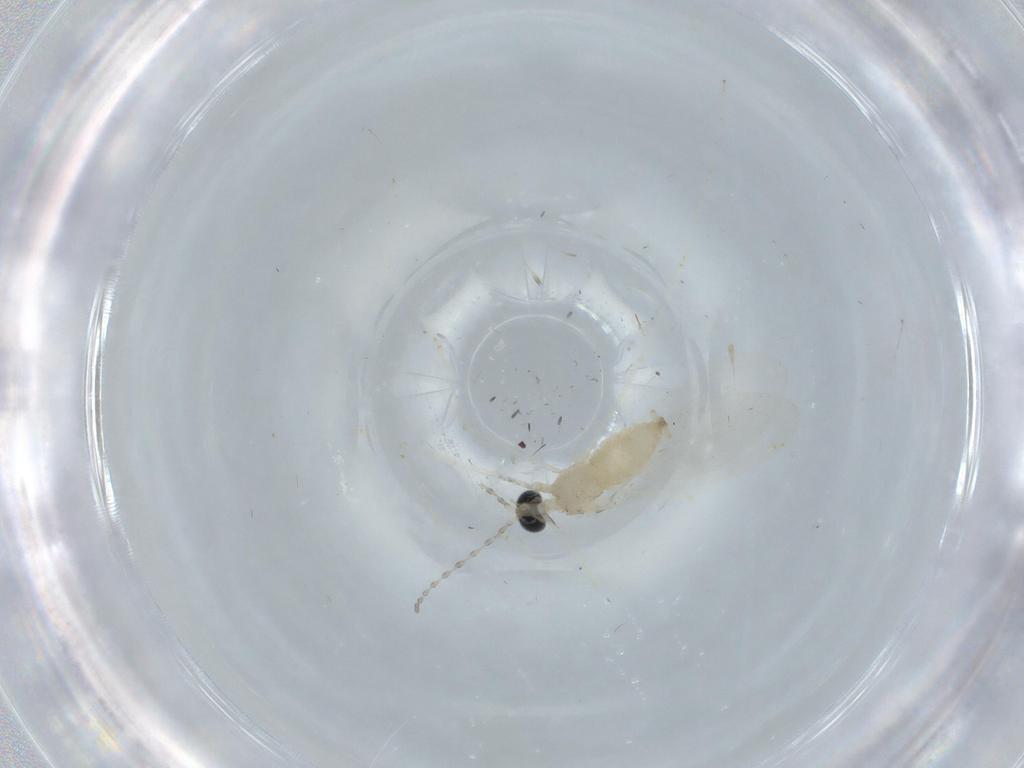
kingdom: Animalia
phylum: Arthropoda
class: Insecta
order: Diptera
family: Cecidomyiidae
